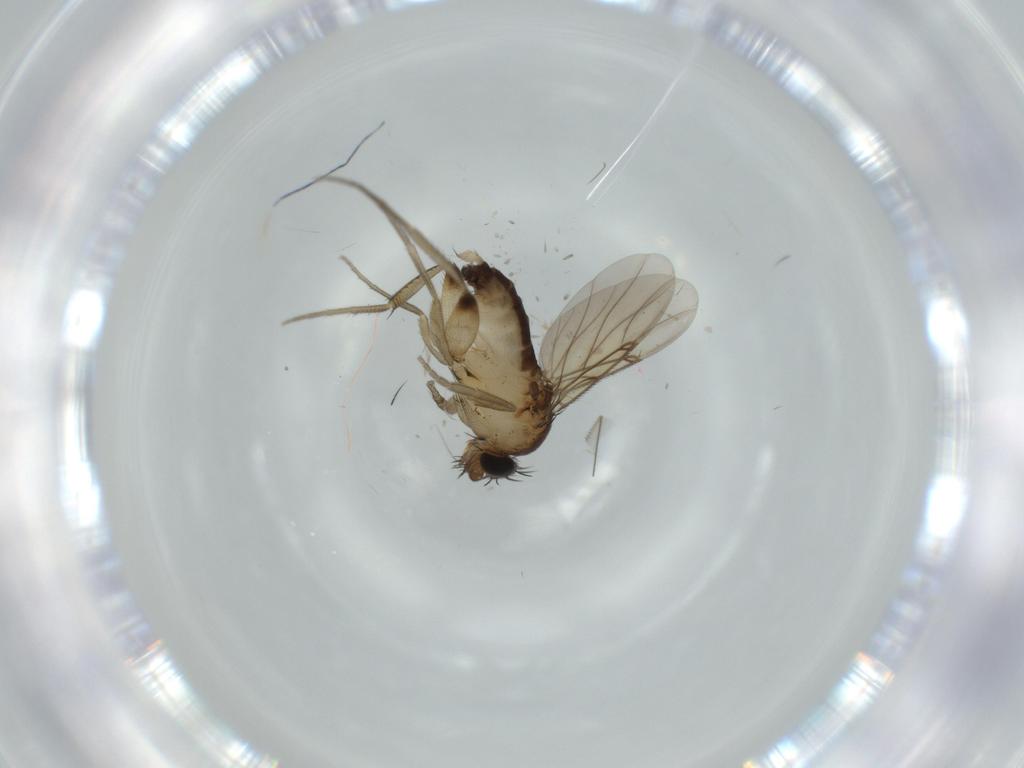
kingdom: Animalia
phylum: Arthropoda
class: Insecta
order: Diptera
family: Phoridae
